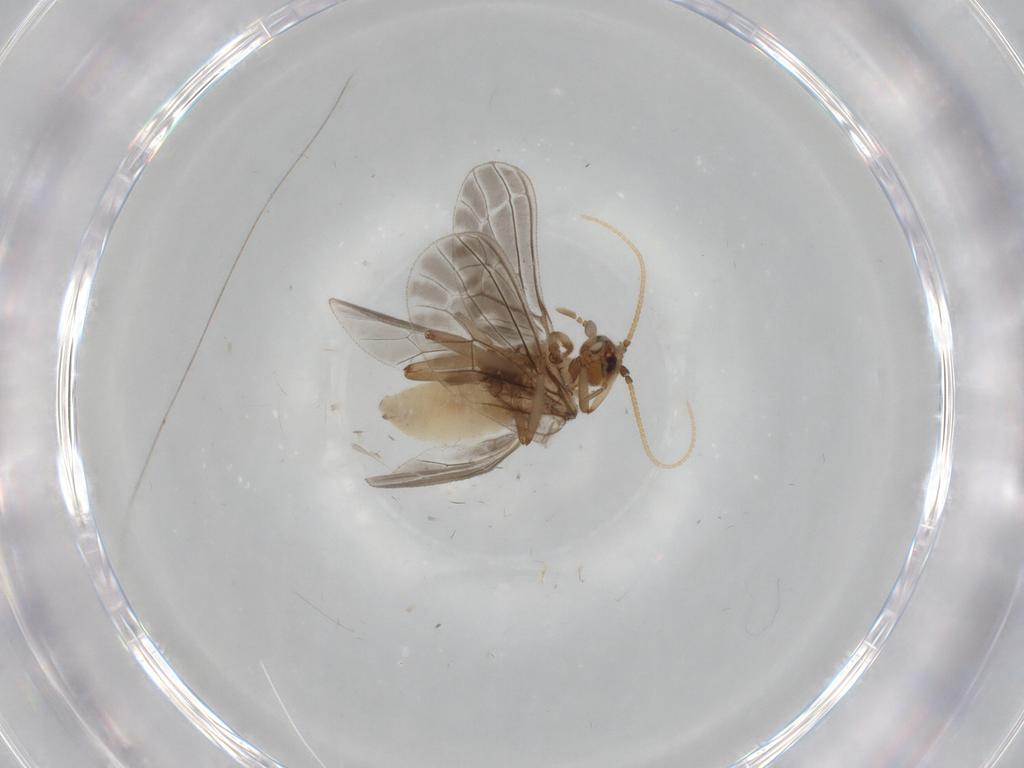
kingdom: Animalia
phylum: Arthropoda
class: Insecta
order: Neuroptera
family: Coniopterygidae
